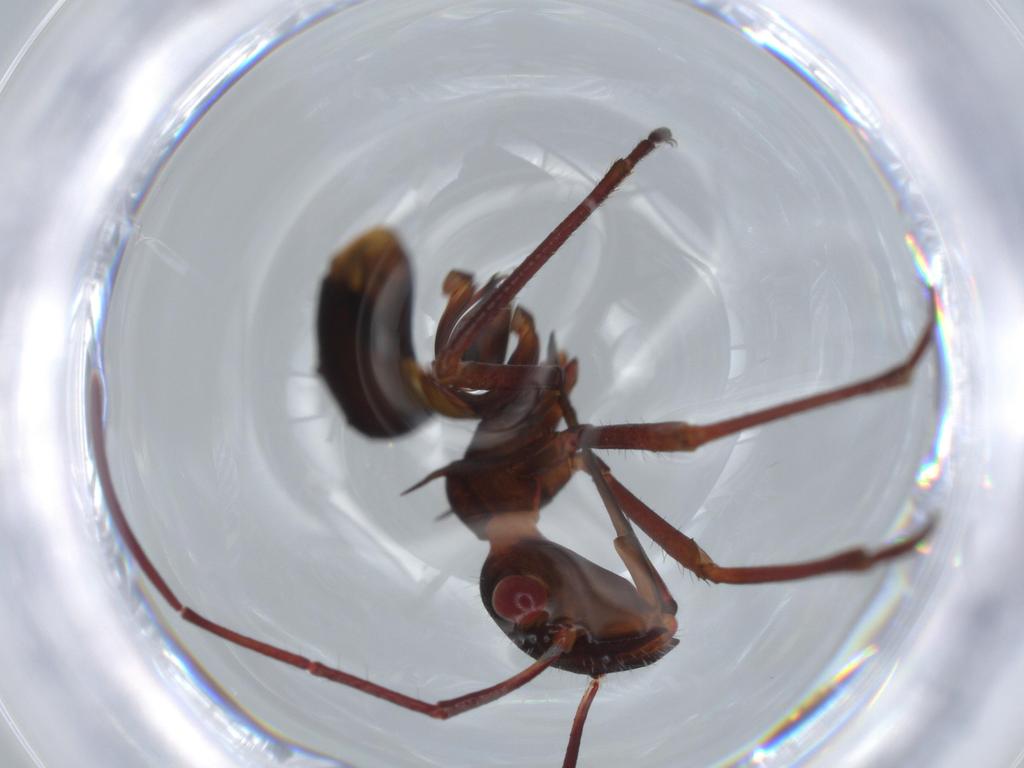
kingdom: Animalia
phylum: Arthropoda
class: Insecta
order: Hemiptera
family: Alydidae
